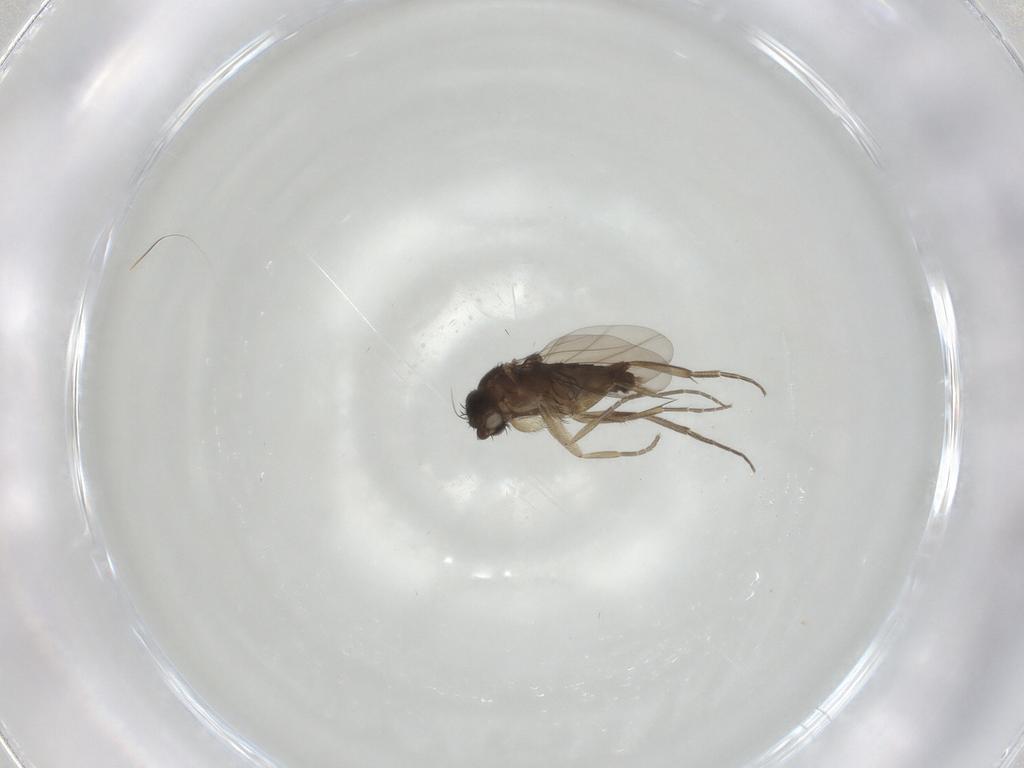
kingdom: Animalia
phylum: Arthropoda
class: Insecta
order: Diptera
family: Phoridae
